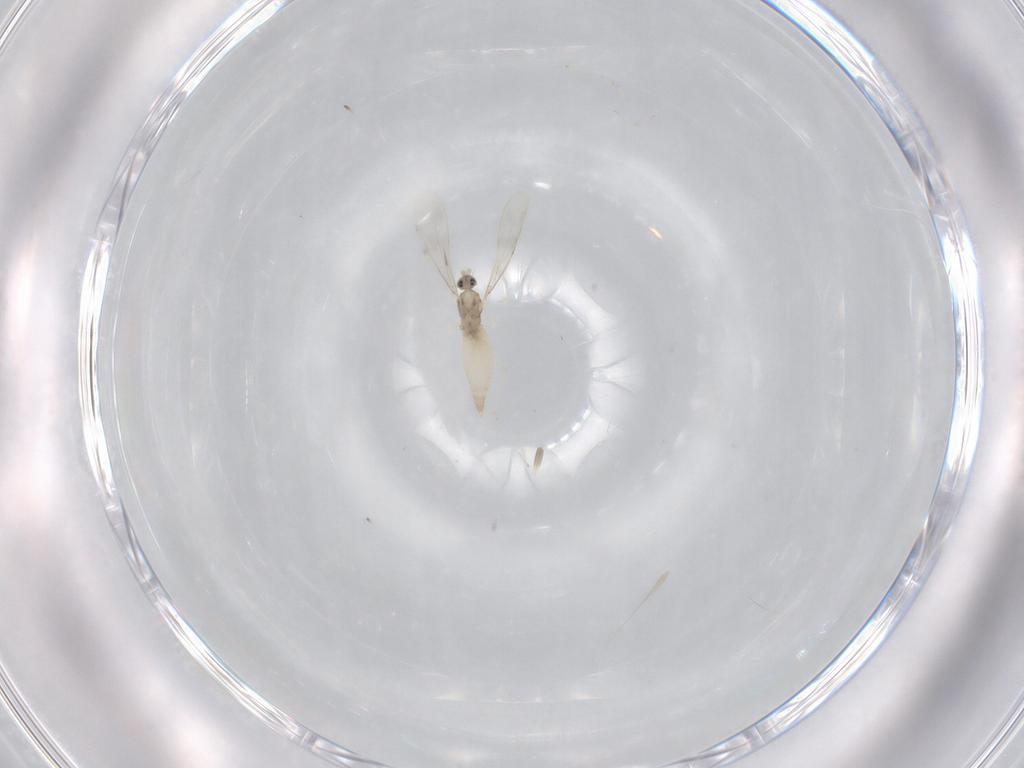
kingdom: Animalia
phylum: Arthropoda
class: Insecta
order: Diptera
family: Cecidomyiidae
